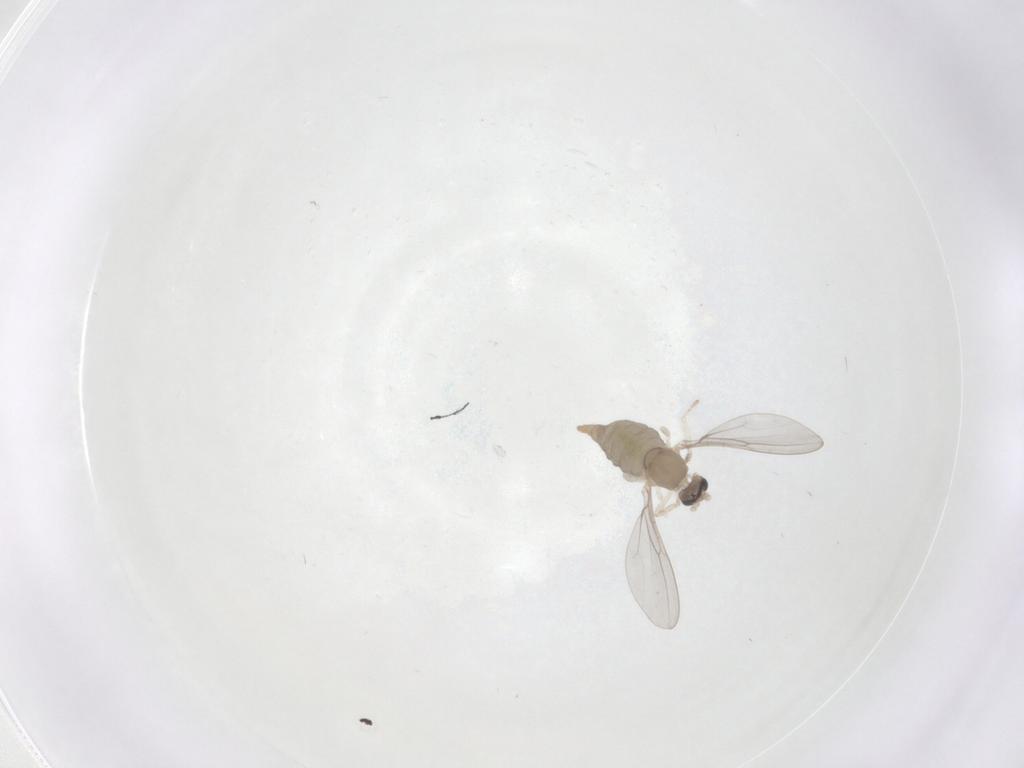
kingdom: Animalia
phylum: Arthropoda
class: Insecta
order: Diptera
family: Cecidomyiidae
